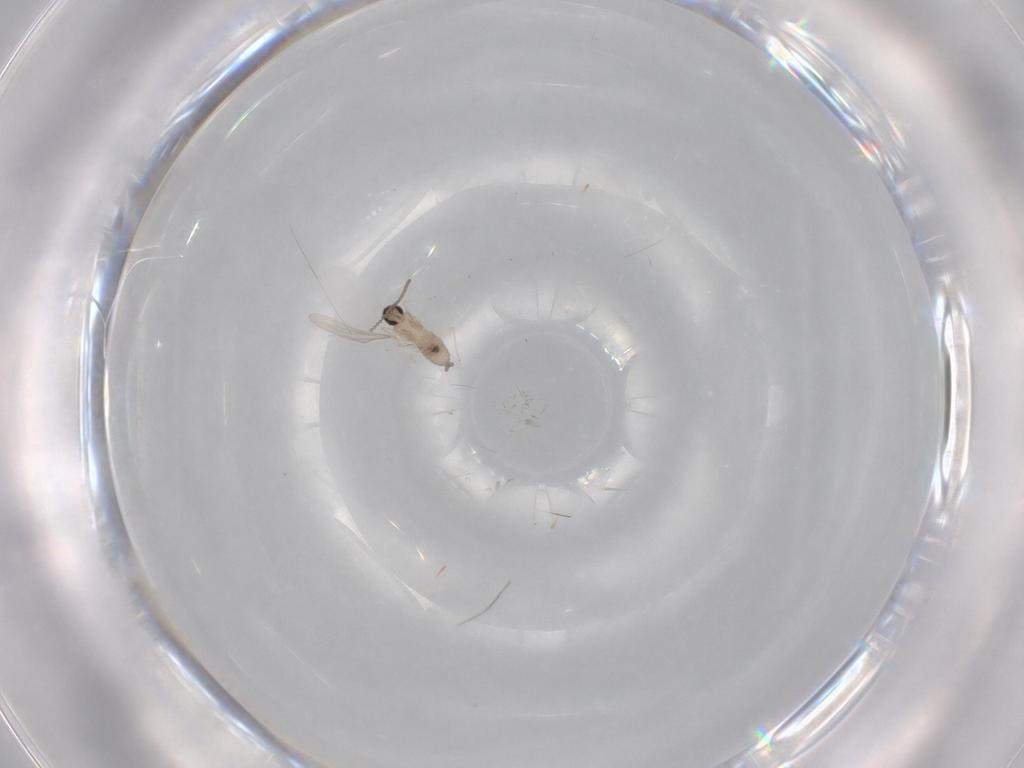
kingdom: Animalia
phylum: Arthropoda
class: Insecta
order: Diptera
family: Cecidomyiidae
